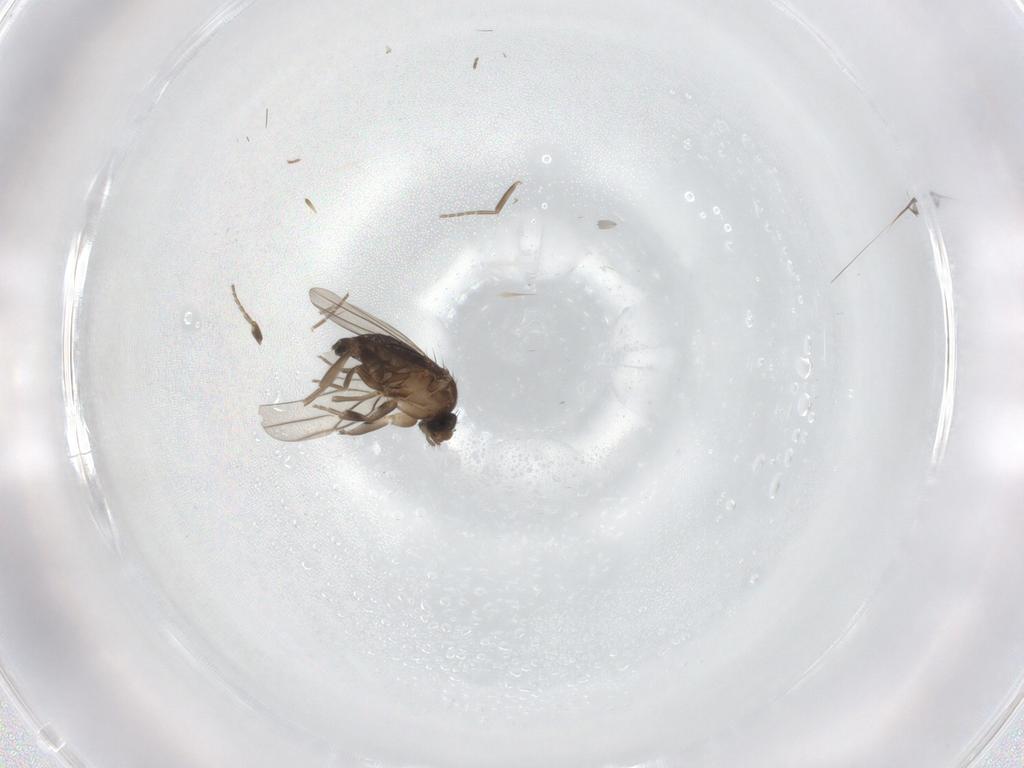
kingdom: Animalia
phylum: Arthropoda
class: Insecta
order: Diptera
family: Phoridae
